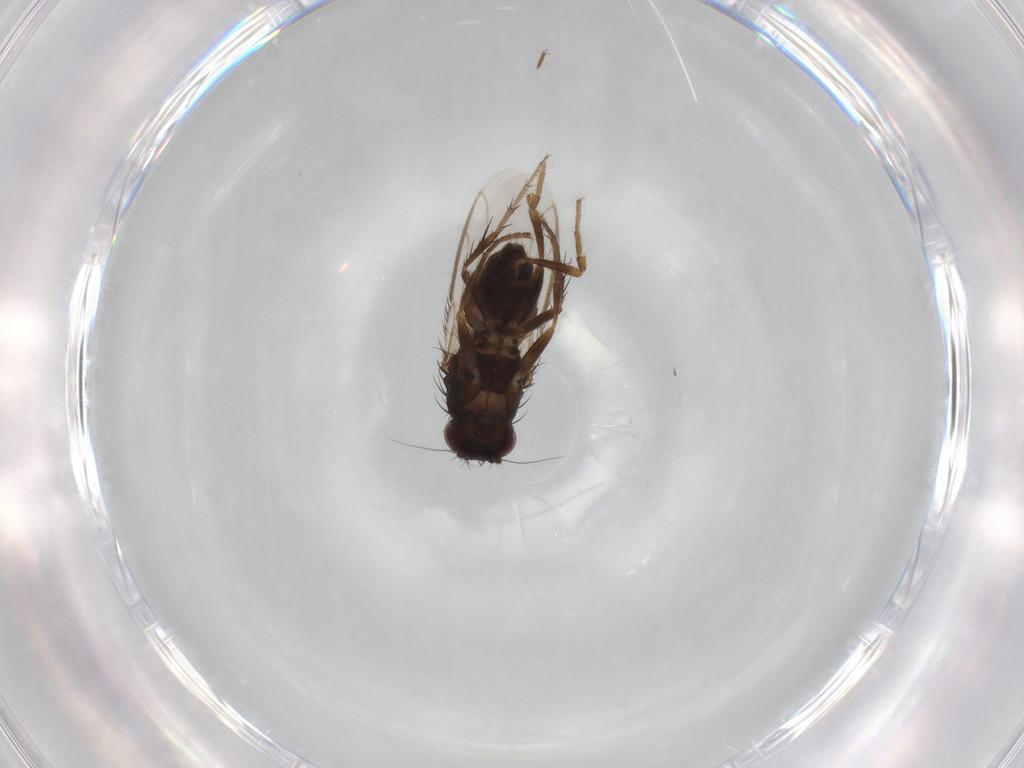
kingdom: Animalia
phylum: Arthropoda
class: Insecta
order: Diptera
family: Sphaeroceridae
